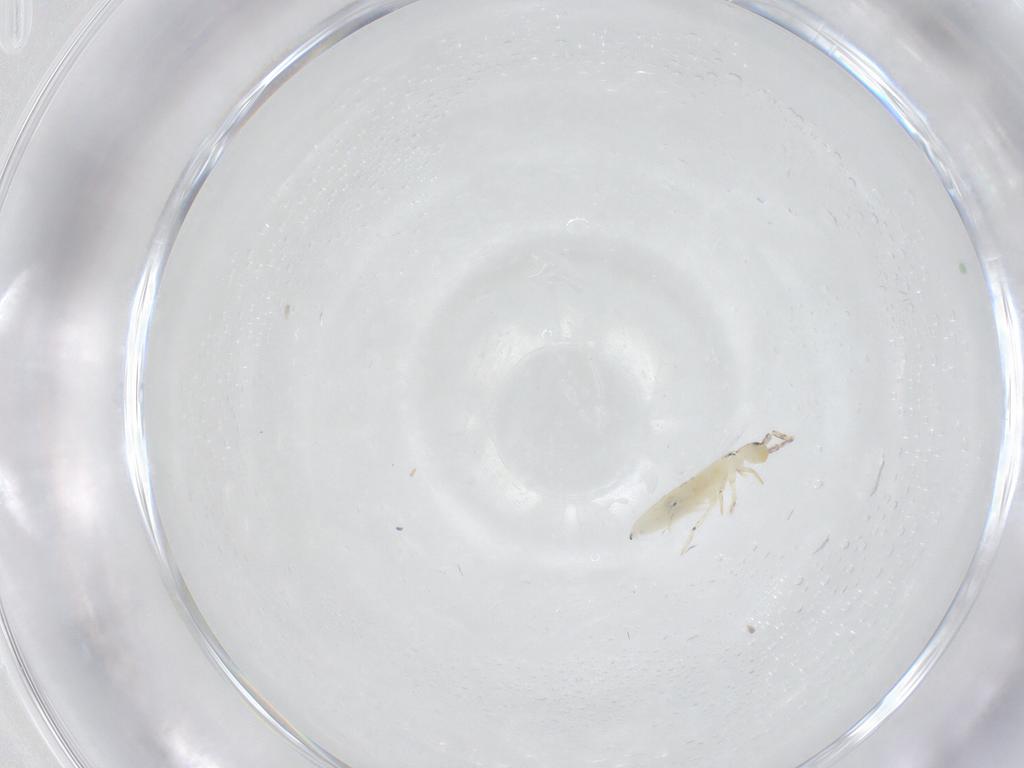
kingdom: Animalia
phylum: Arthropoda
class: Collembola
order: Entomobryomorpha
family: Entomobryidae
